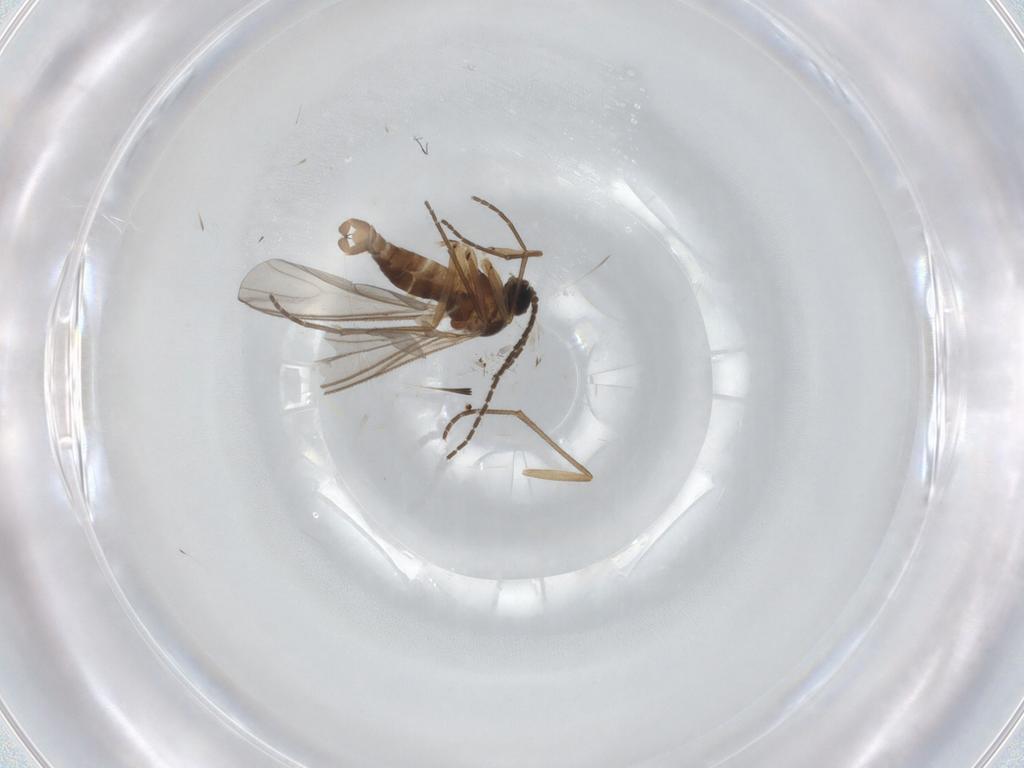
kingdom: Animalia
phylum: Arthropoda
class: Insecta
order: Diptera
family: Sciaridae
